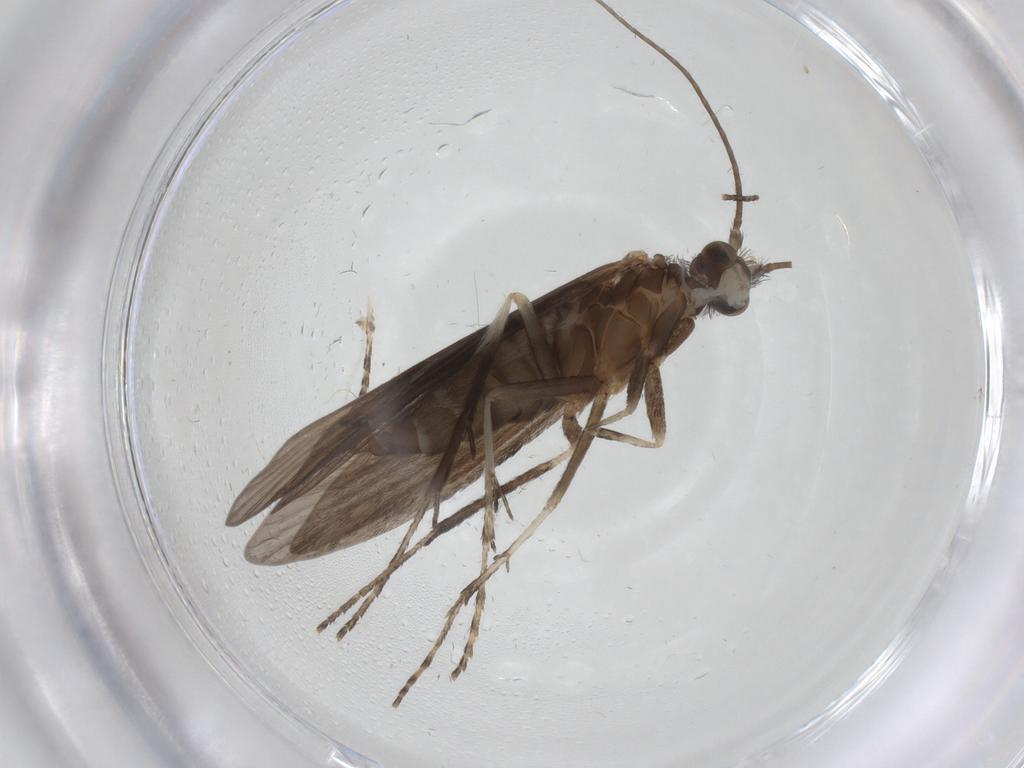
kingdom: Animalia
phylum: Arthropoda
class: Insecta
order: Trichoptera
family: Xiphocentronidae
